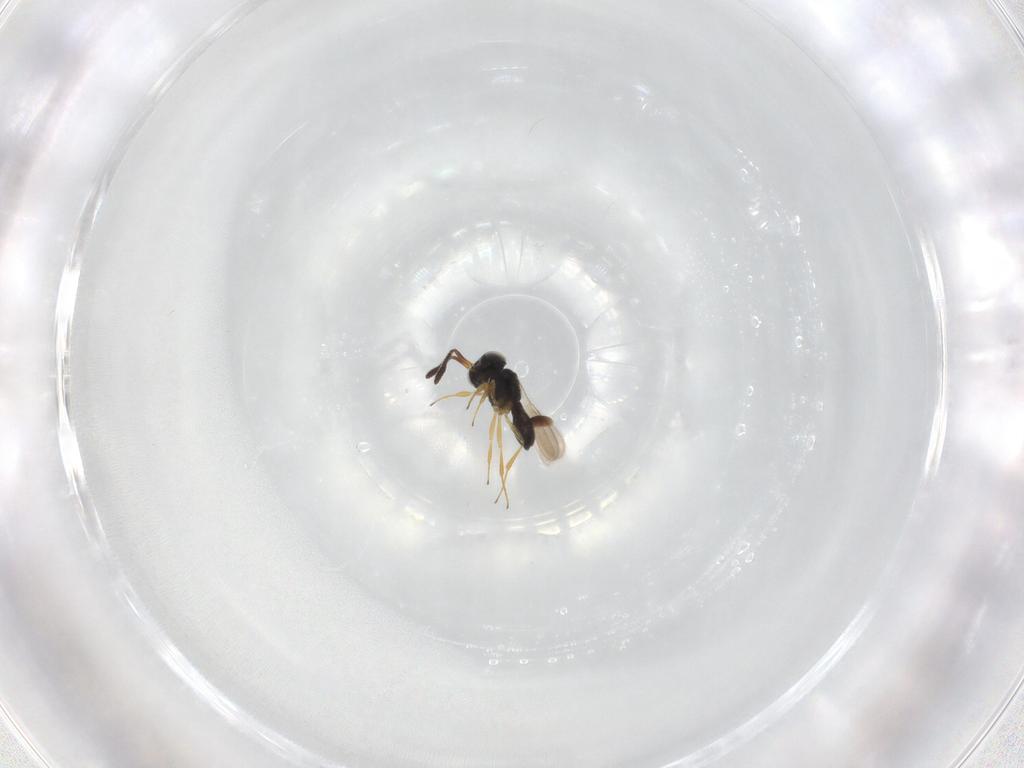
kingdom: Animalia
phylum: Arthropoda
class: Insecta
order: Hymenoptera
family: Scelionidae
